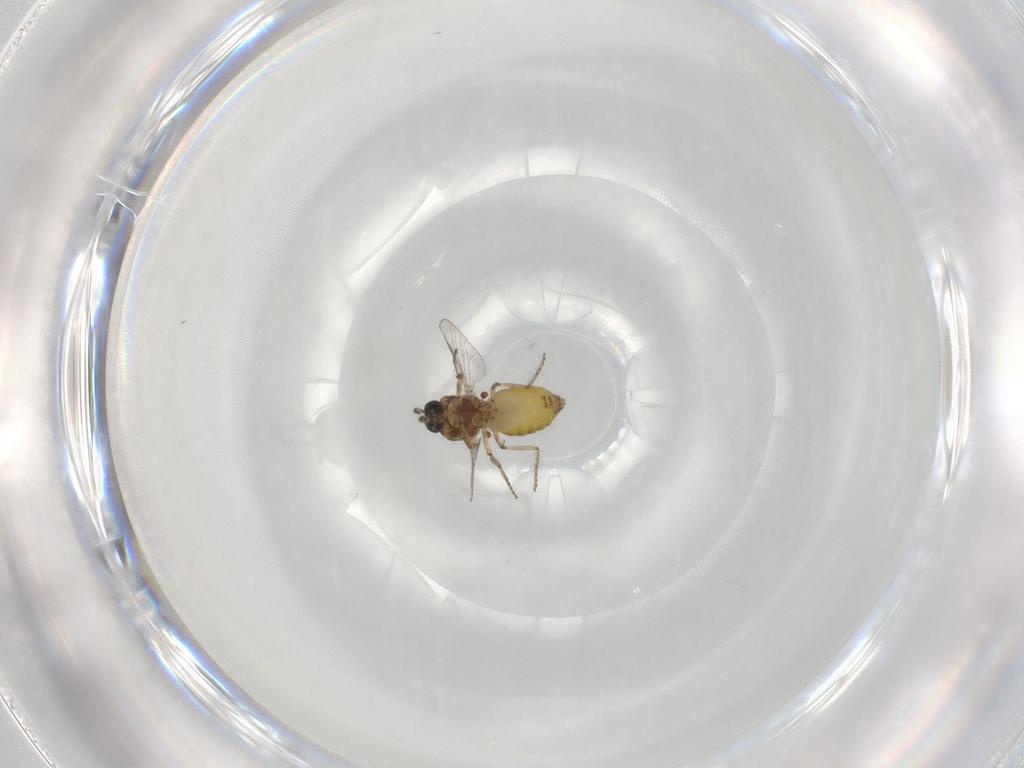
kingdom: Animalia
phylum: Arthropoda
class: Insecta
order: Diptera
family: Ceratopogonidae
